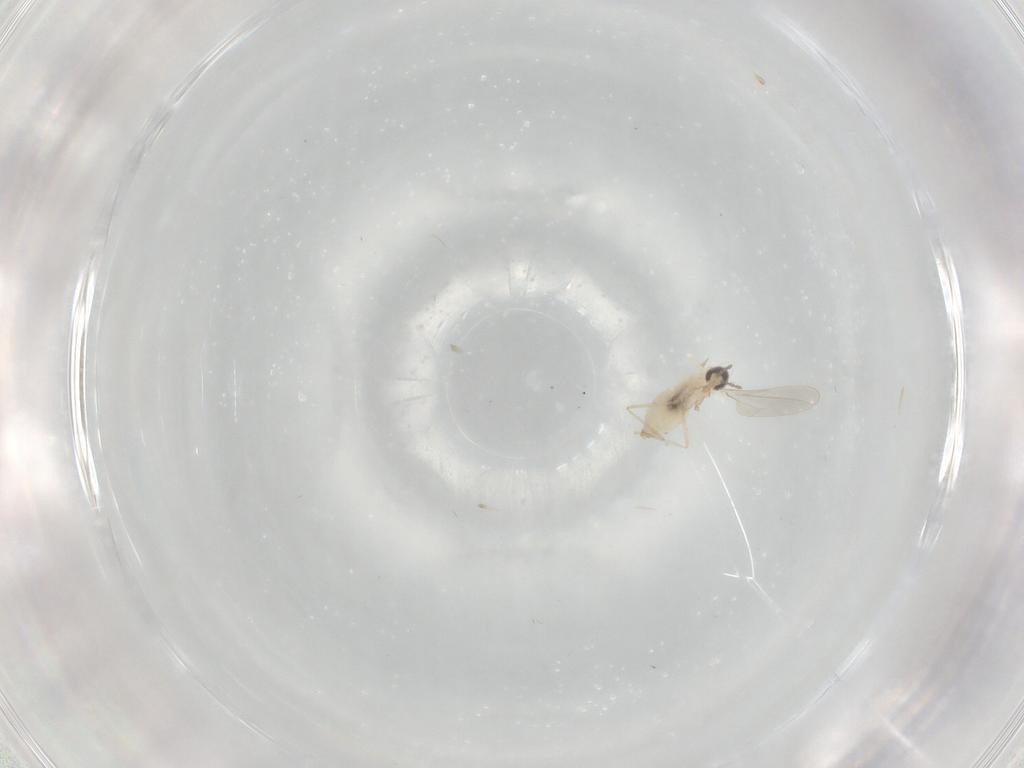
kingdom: Animalia
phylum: Arthropoda
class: Insecta
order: Diptera
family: Cecidomyiidae
